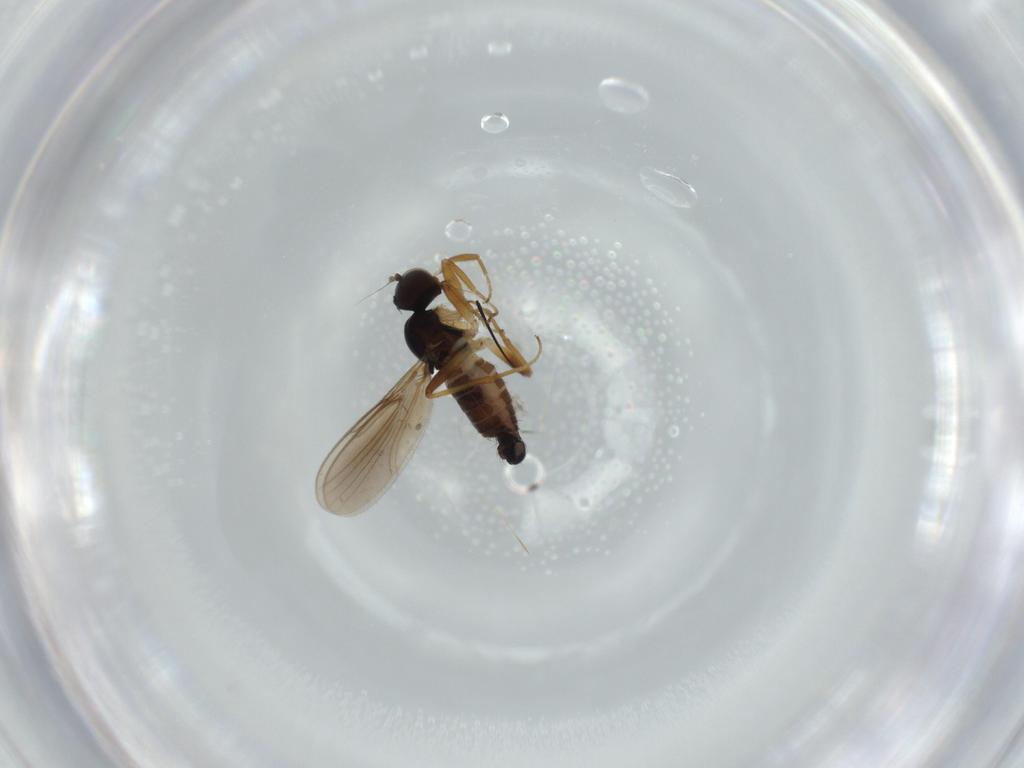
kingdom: Animalia
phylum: Arthropoda
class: Insecta
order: Diptera
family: Hybotidae
